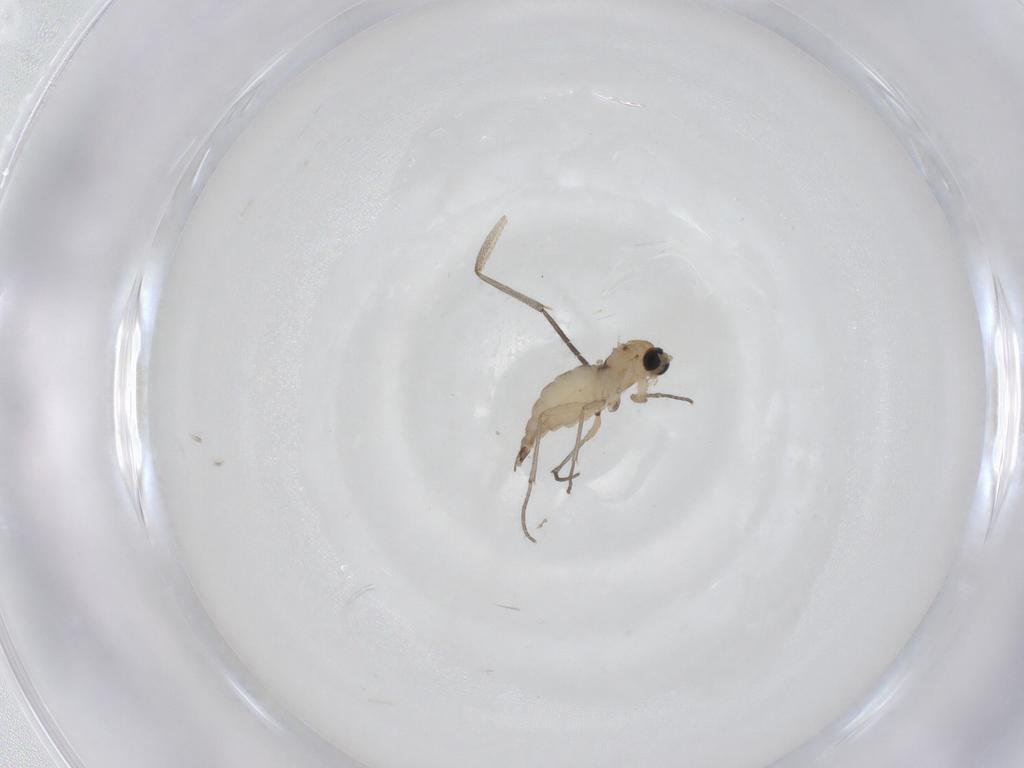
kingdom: Animalia
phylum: Arthropoda
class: Insecta
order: Diptera
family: Sciaridae
